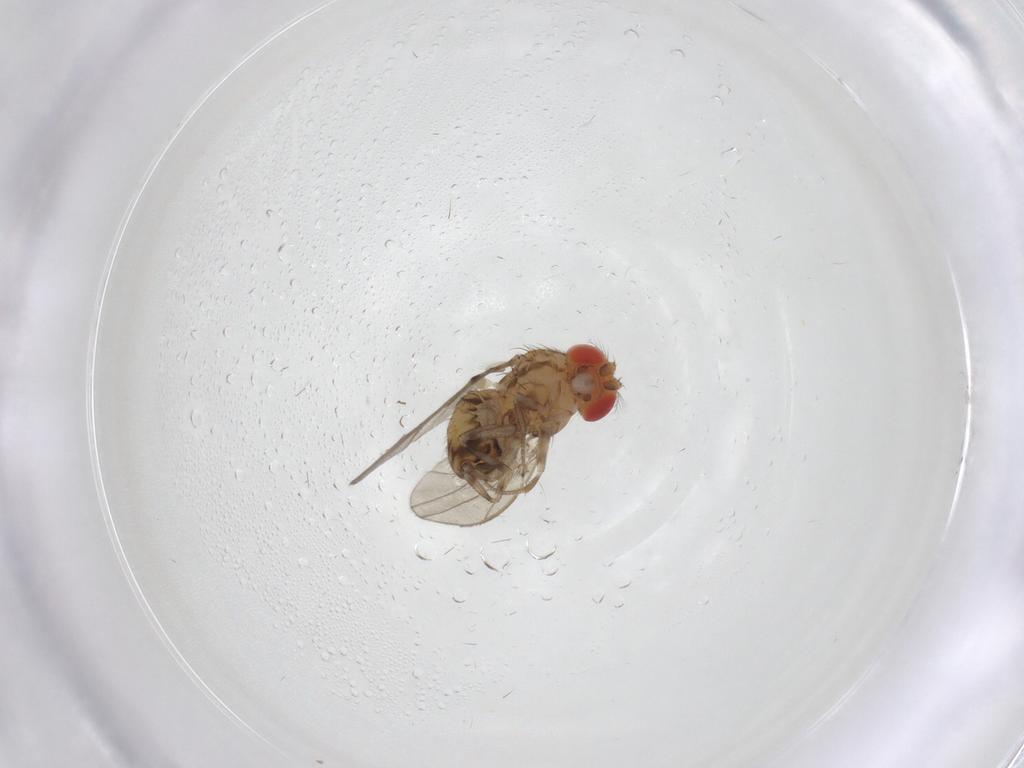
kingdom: Animalia
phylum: Arthropoda
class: Insecta
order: Diptera
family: Drosophilidae
